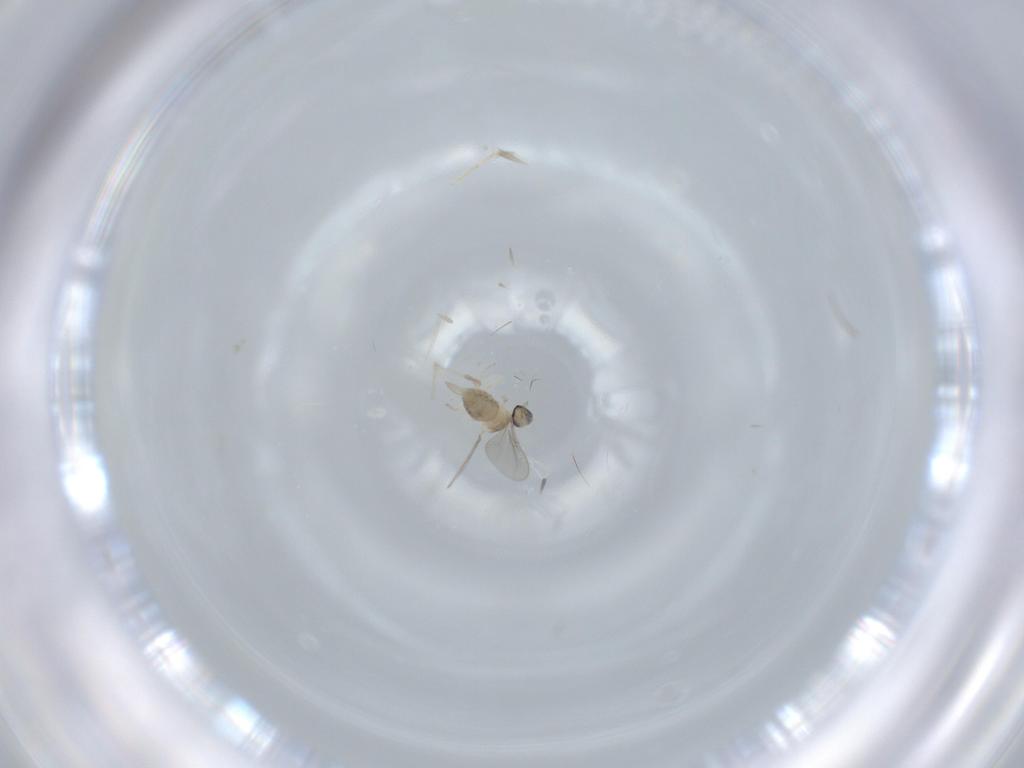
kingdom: Animalia
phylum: Arthropoda
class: Insecta
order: Diptera
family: Cecidomyiidae
